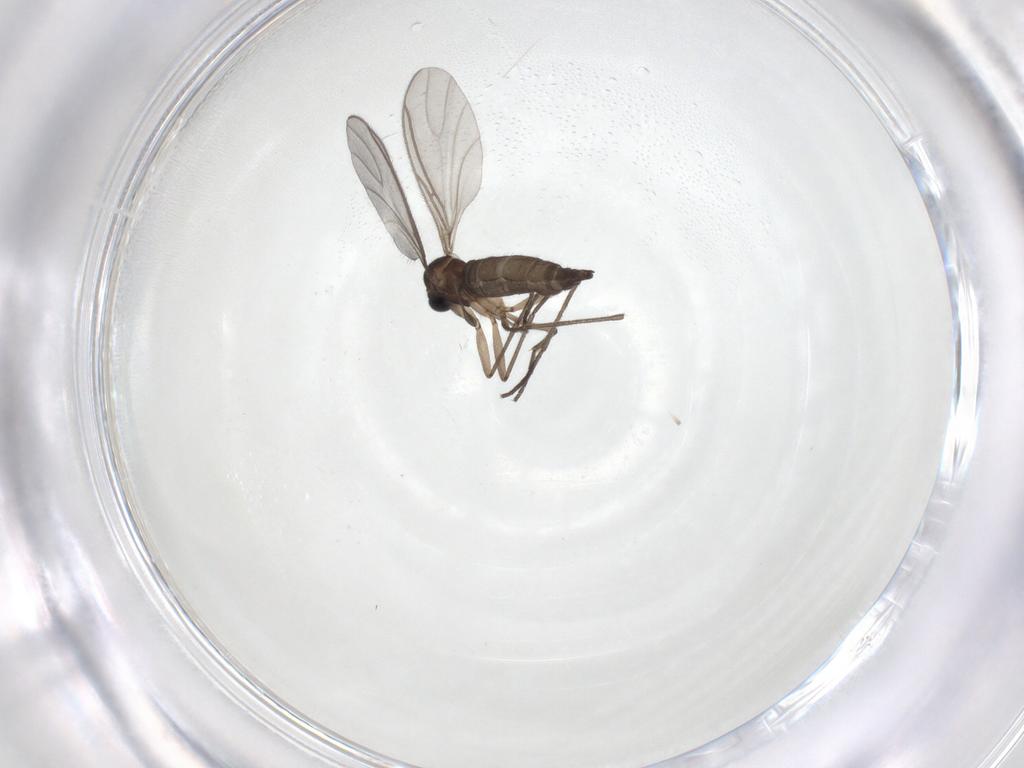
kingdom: Animalia
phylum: Arthropoda
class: Insecta
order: Diptera
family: Sciaridae
